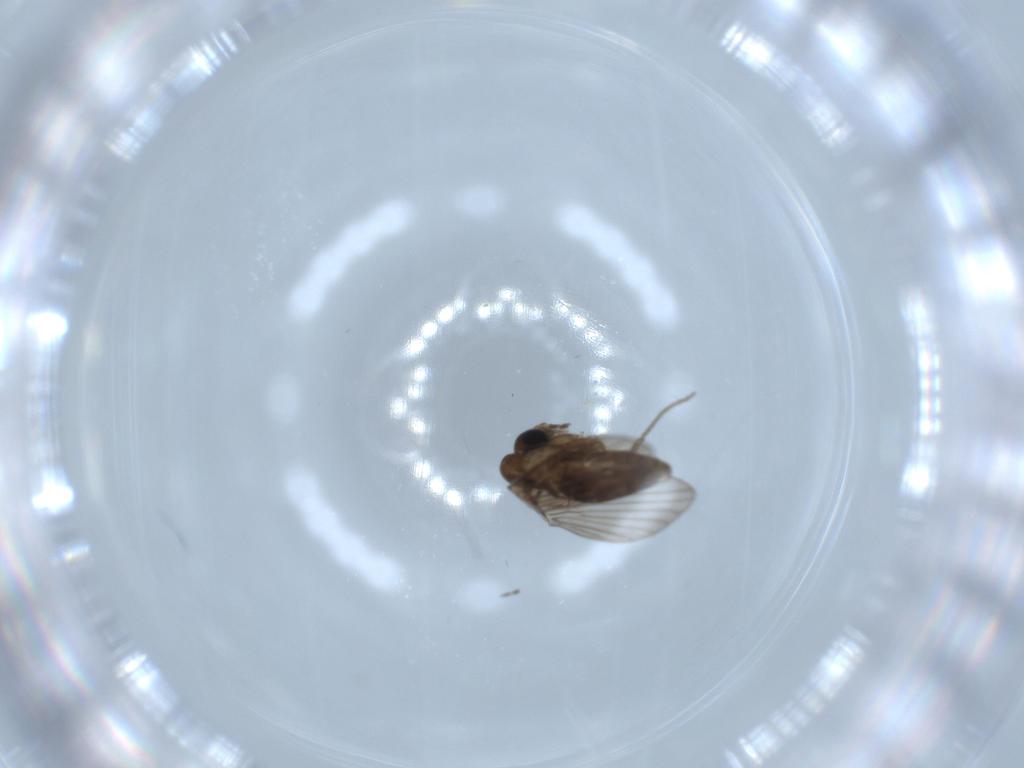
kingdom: Animalia
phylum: Arthropoda
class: Insecta
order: Diptera
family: Psychodidae
